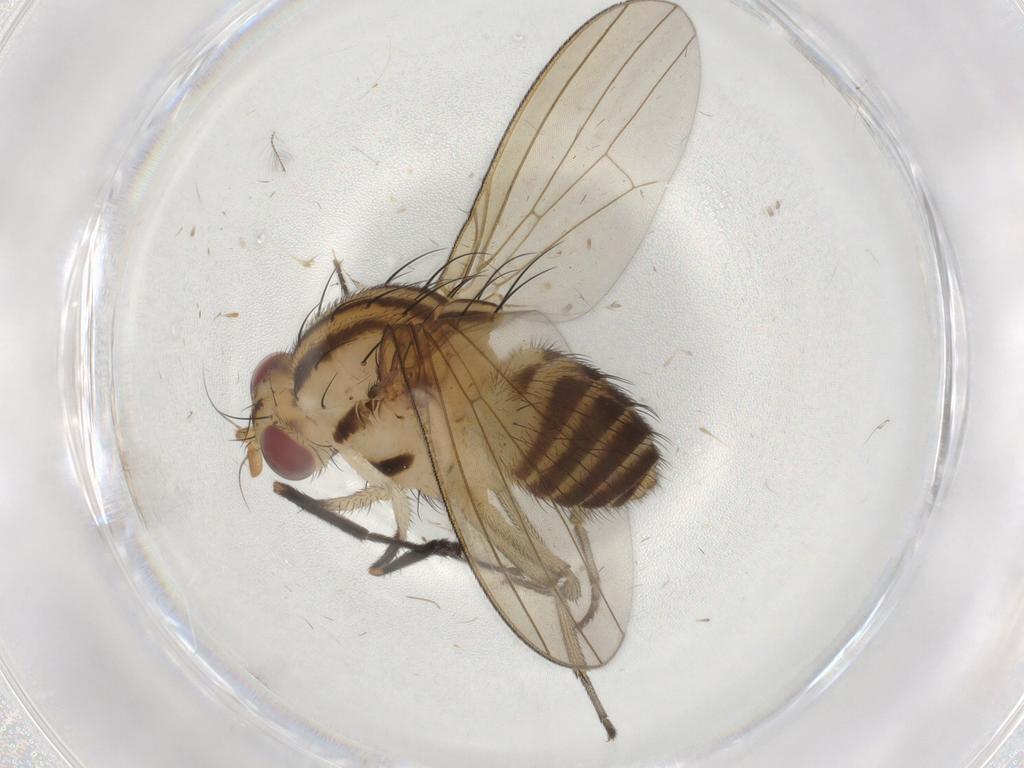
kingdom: Animalia
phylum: Arthropoda
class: Insecta
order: Diptera
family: Sciaridae
